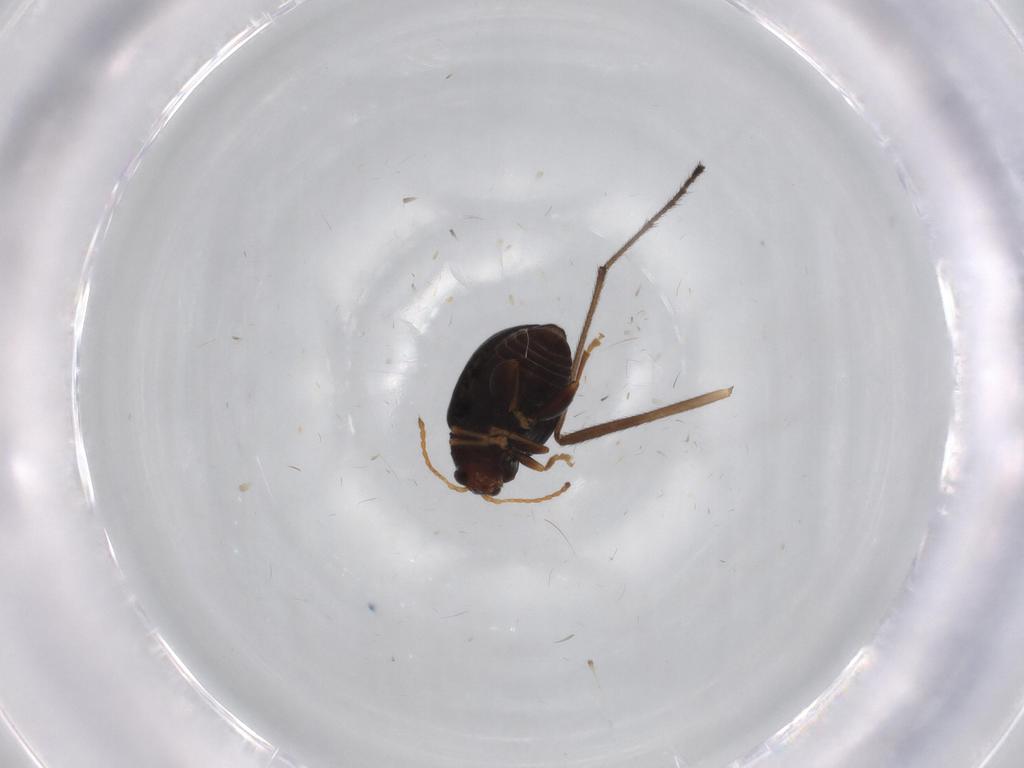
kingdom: Animalia
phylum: Arthropoda
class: Insecta
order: Coleoptera
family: Chrysomelidae
